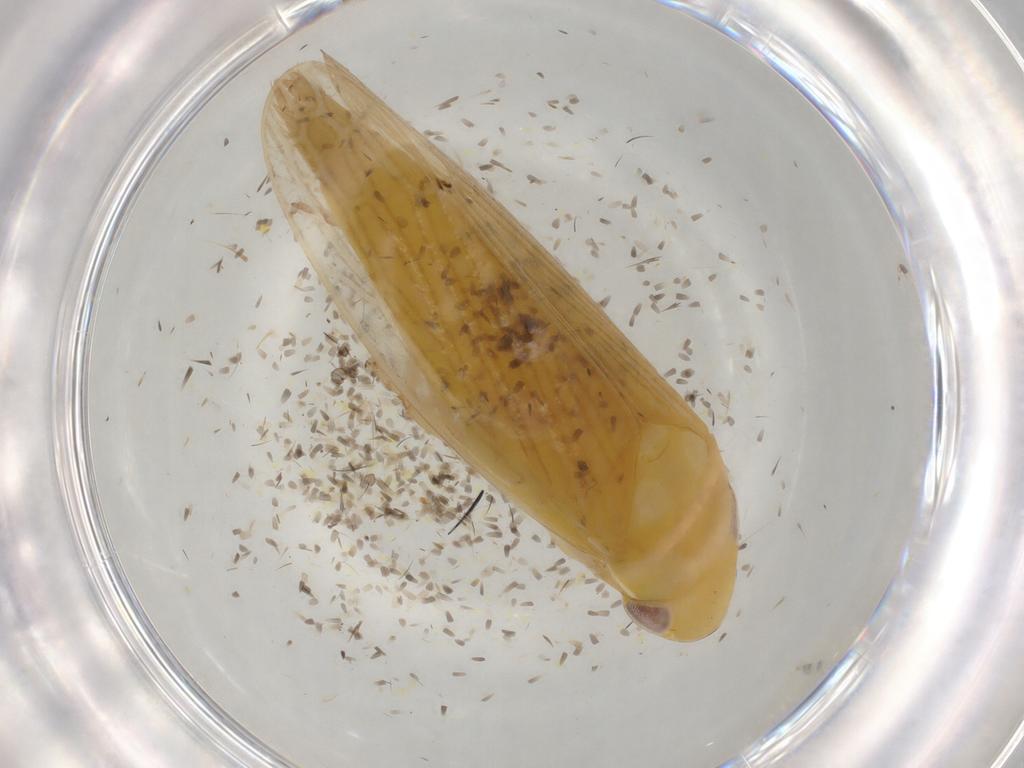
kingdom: Animalia
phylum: Arthropoda
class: Insecta
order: Hemiptera
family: Cicadellidae
